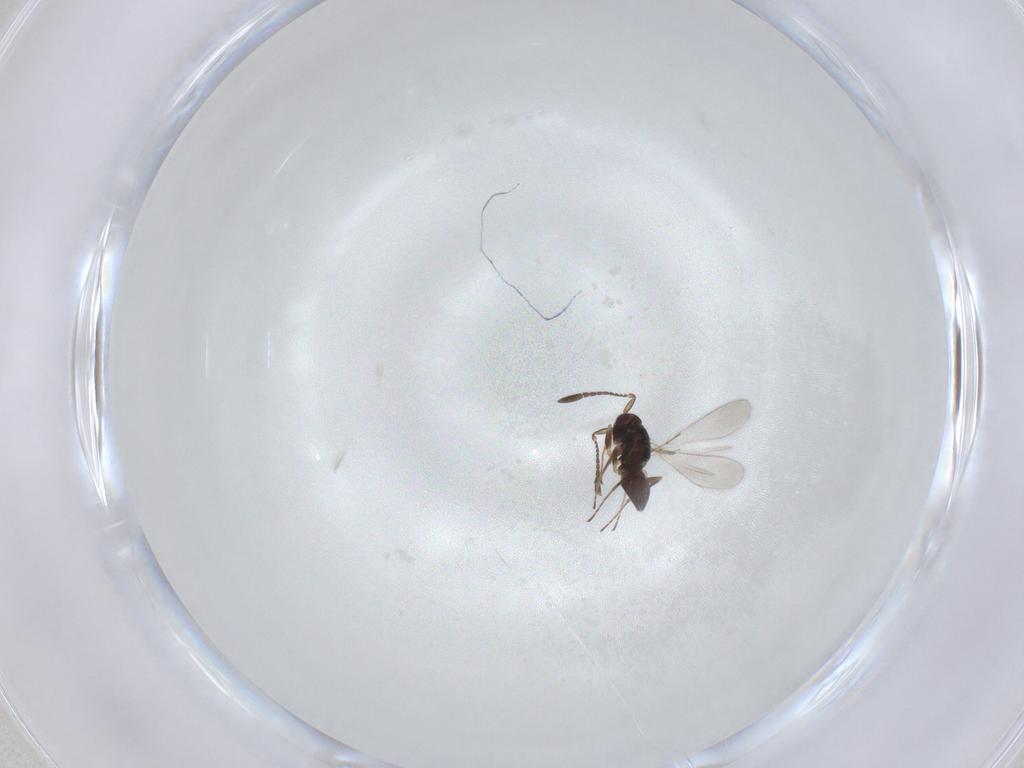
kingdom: Animalia
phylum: Arthropoda
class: Insecta
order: Hymenoptera
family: Mymaridae
